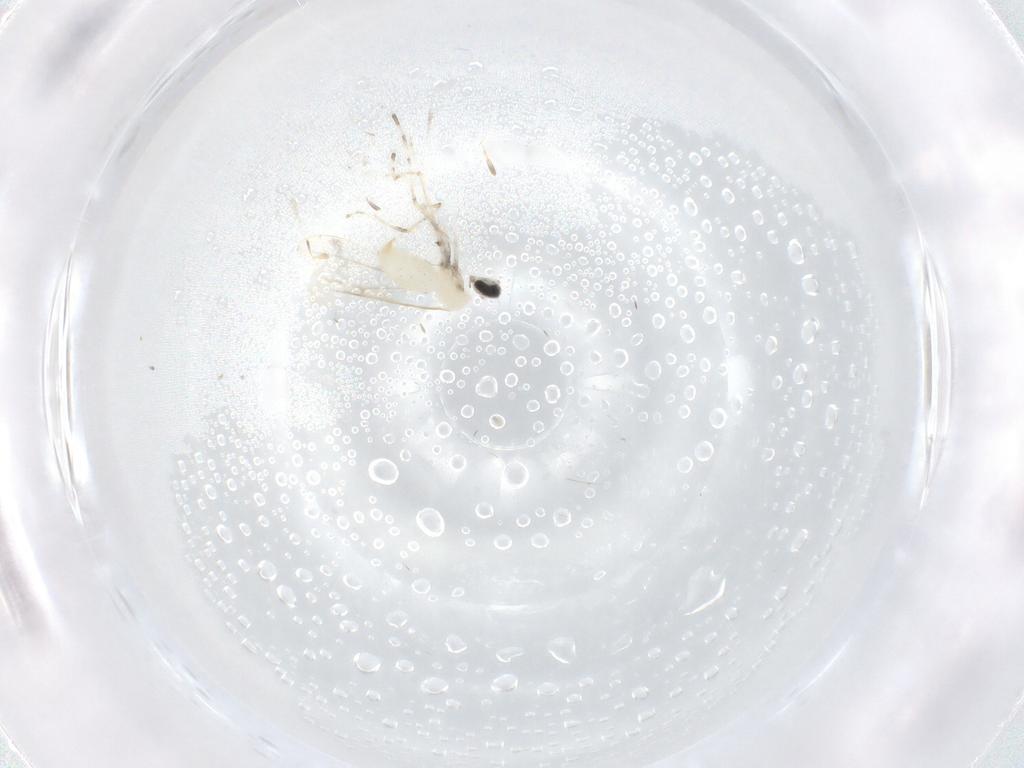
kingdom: Animalia
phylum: Arthropoda
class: Insecta
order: Diptera
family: Cecidomyiidae
